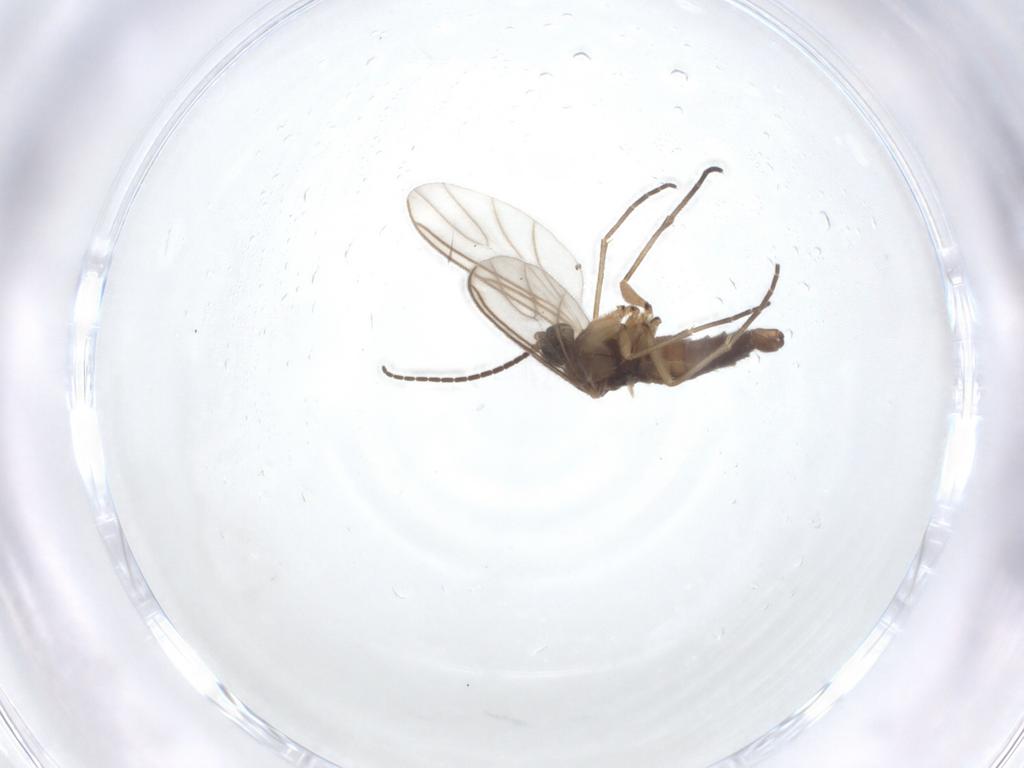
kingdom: Animalia
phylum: Arthropoda
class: Insecta
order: Diptera
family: Sciaridae
